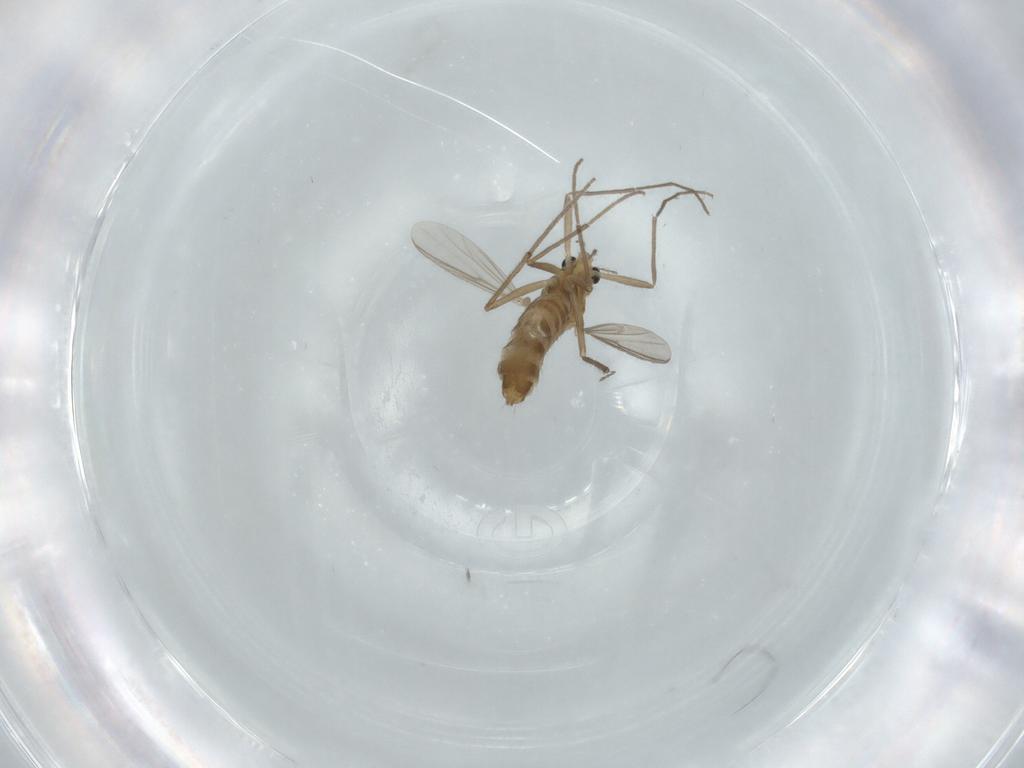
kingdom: Animalia
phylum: Arthropoda
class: Insecta
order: Diptera
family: Chironomidae
